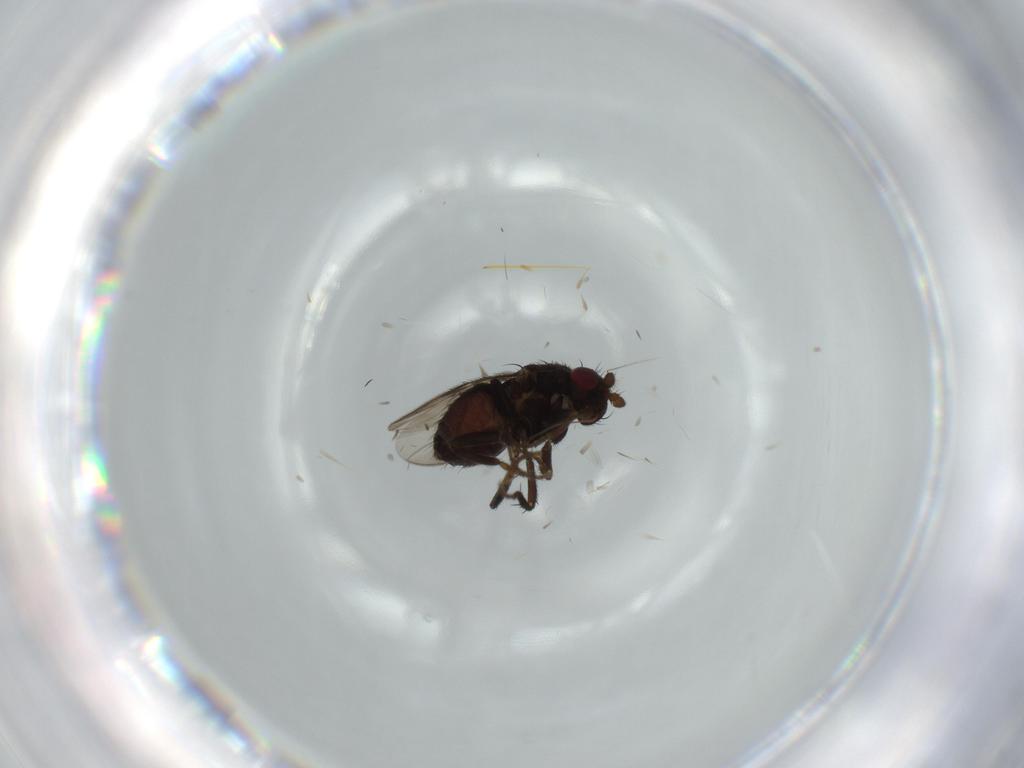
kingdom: Animalia
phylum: Arthropoda
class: Insecta
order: Diptera
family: Sphaeroceridae
